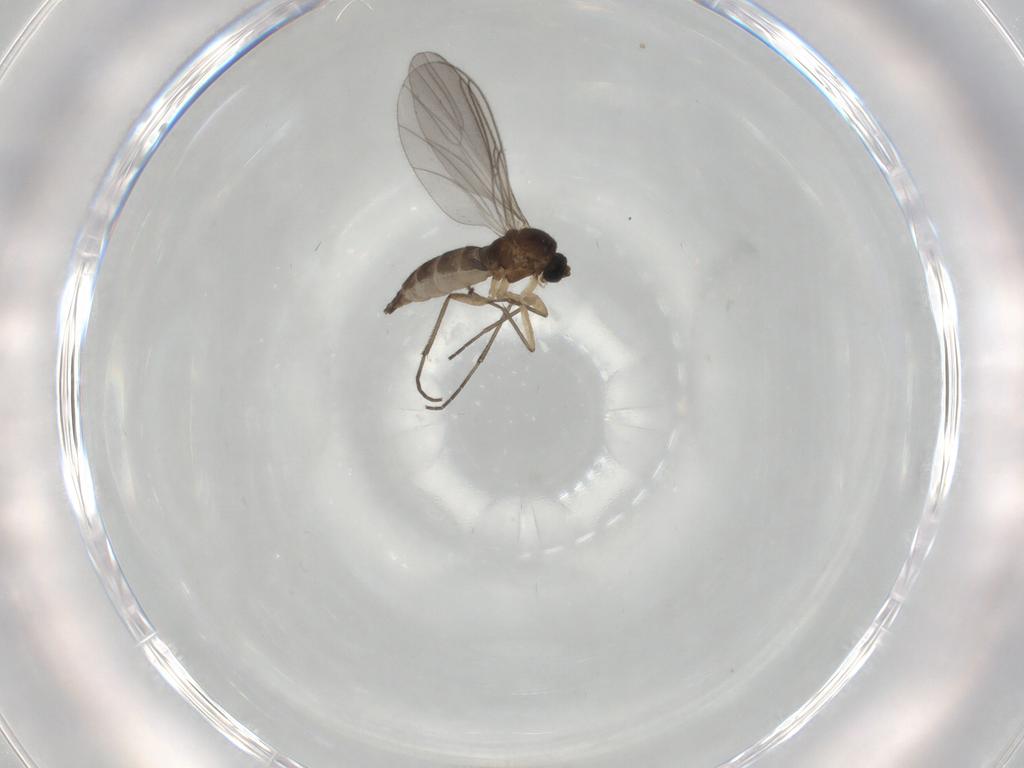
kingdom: Animalia
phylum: Arthropoda
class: Insecta
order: Diptera
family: Sciaridae
